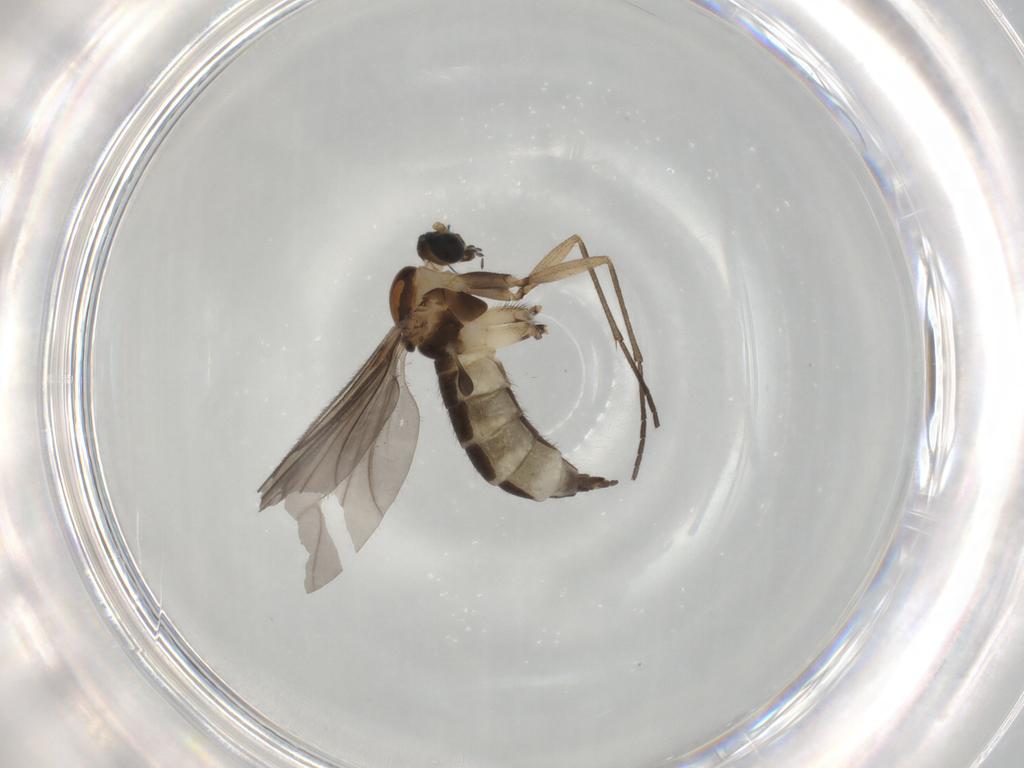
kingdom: Animalia
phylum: Arthropoda
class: Insecta
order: Diptera
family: Sciaridae
